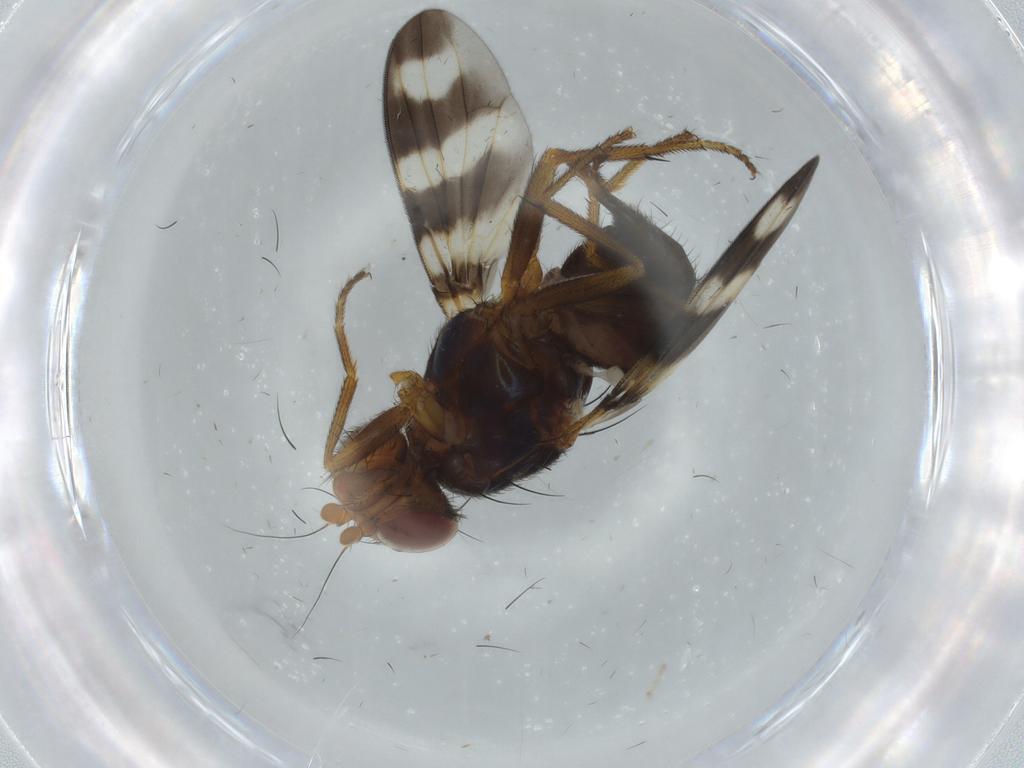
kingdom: Animalia
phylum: Arthropoda
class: Insecta
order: Diptera
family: Ulidiidae
